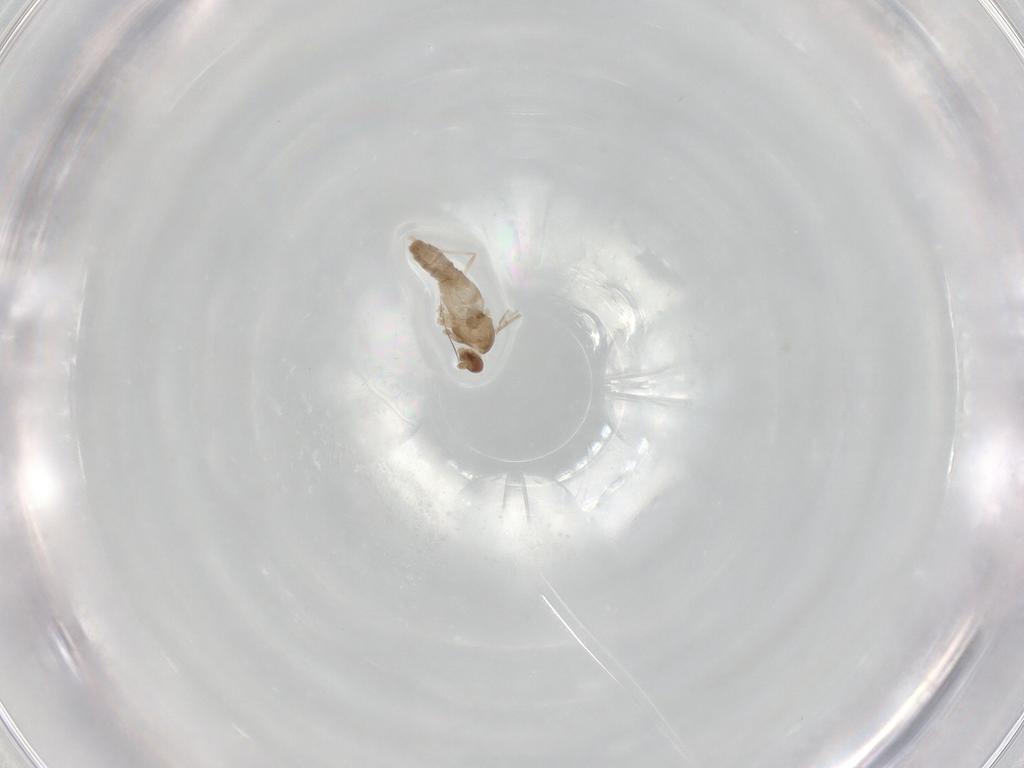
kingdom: Animalia
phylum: Arthropoda
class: Insecta
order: Diptera
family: Cecidomyiidae
